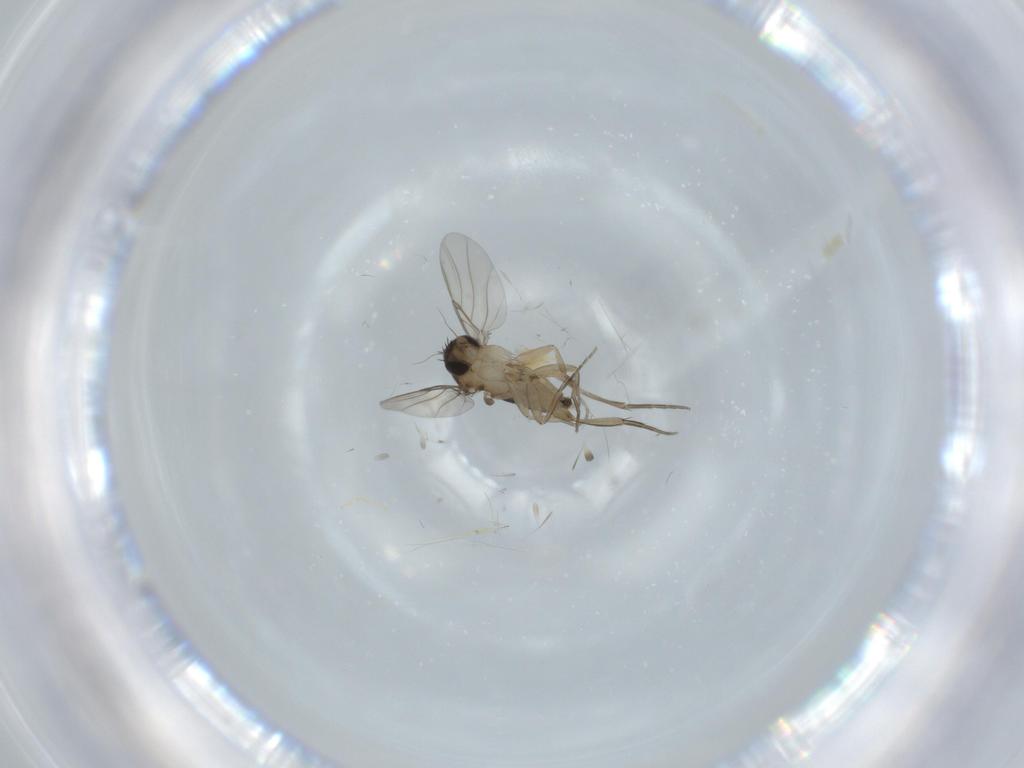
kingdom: Animalia
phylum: Arthropoda
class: Insecta
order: Diptera
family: Phoridae
